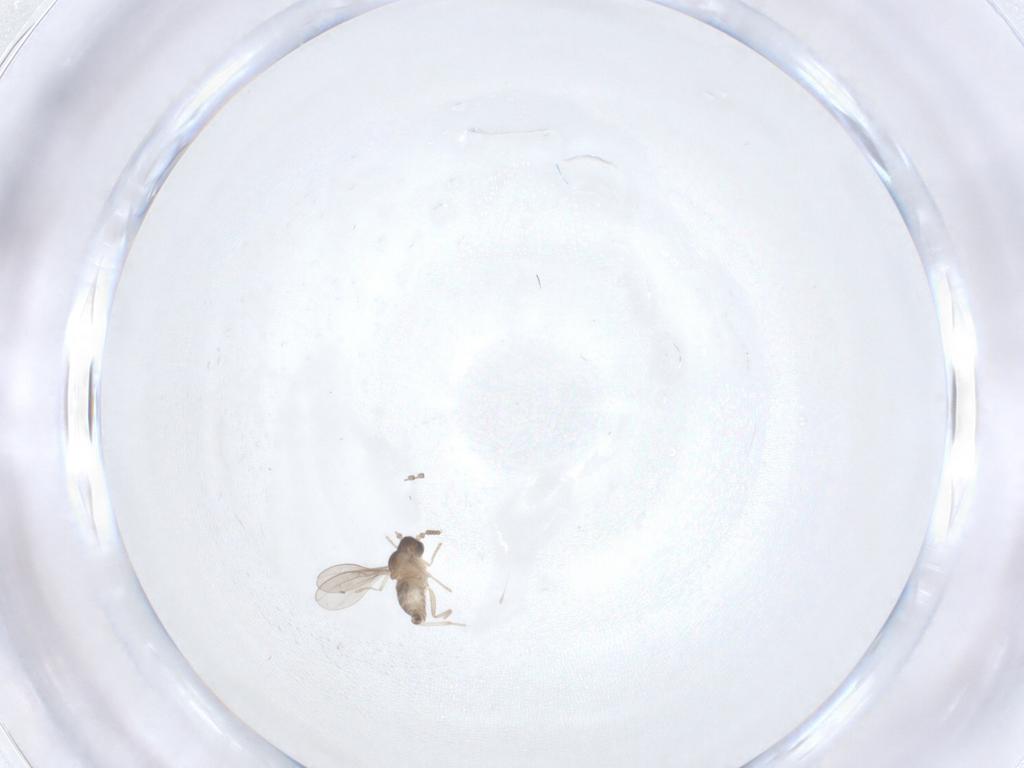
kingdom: Animalia
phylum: Arthropoda
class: Insecta
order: Diptera
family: Cecidomyiidae
